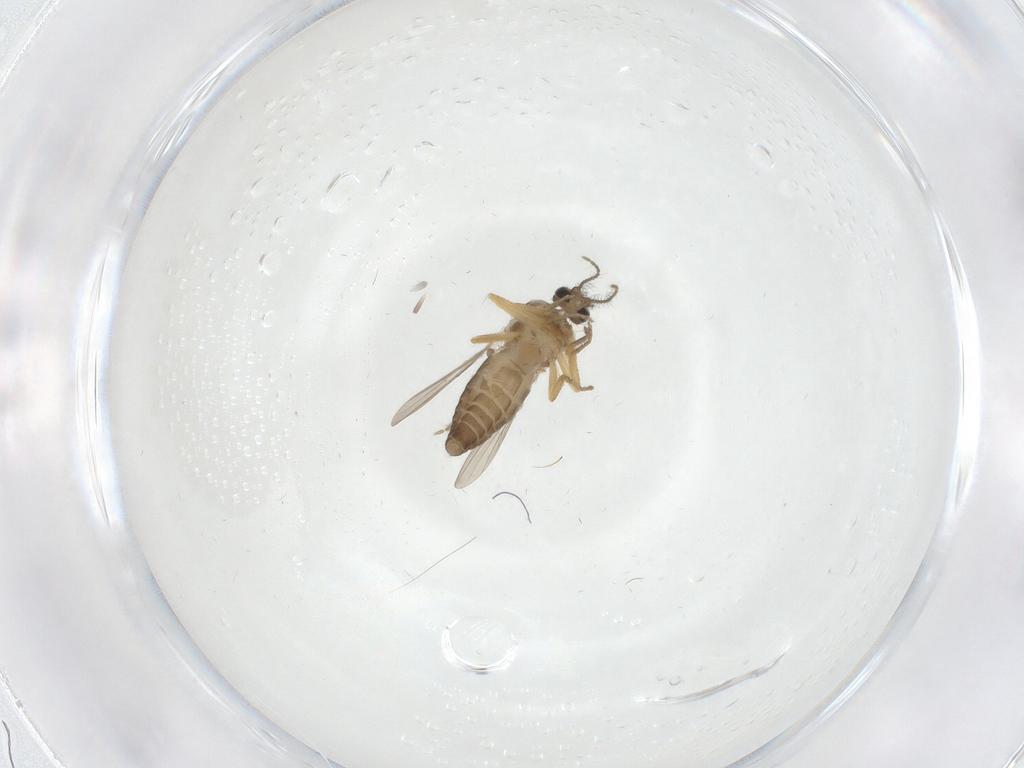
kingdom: Animalia
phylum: Arthropoda
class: Insecta
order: Diptera
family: Ceratopogonidae
